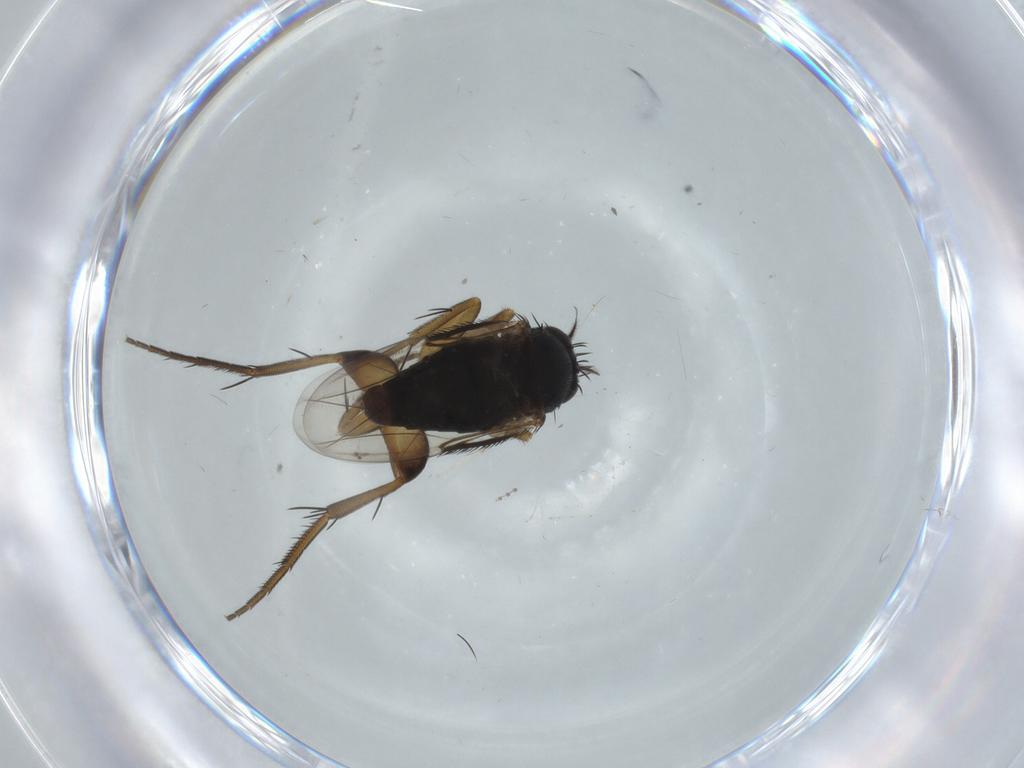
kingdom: Animalia
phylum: Arthropoda
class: Insecta
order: Diptera
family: Phoridae
